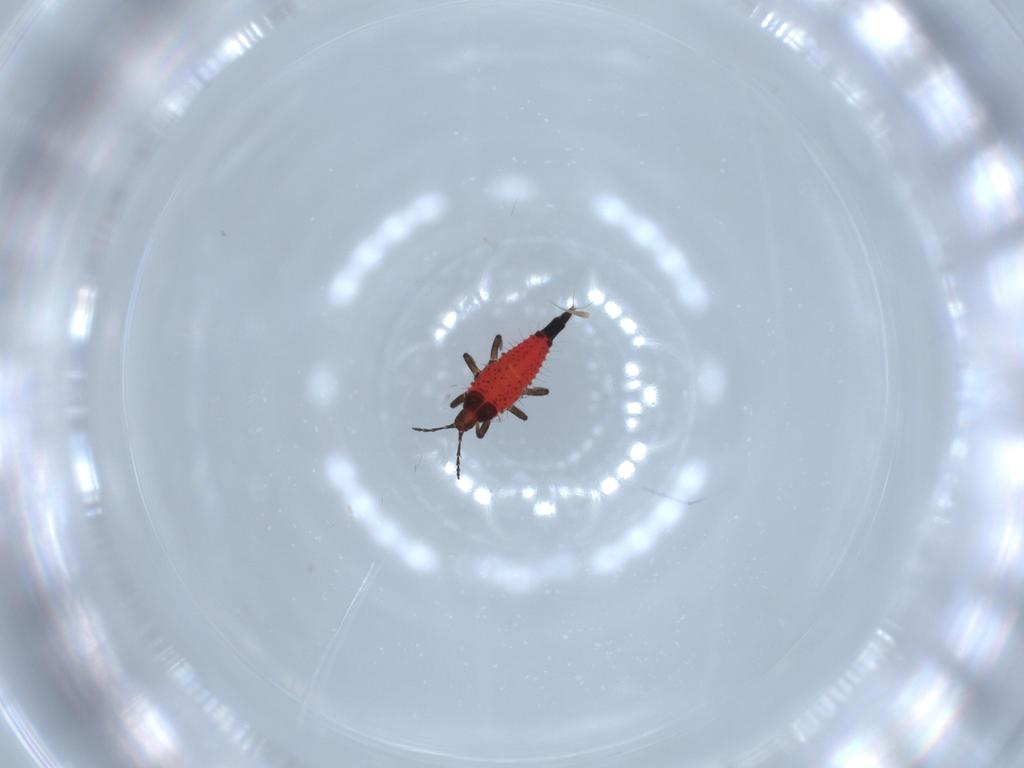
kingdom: Animalia
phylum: Arthropoda
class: Insecta
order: Thysanoptera
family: Phlaeothripidae
